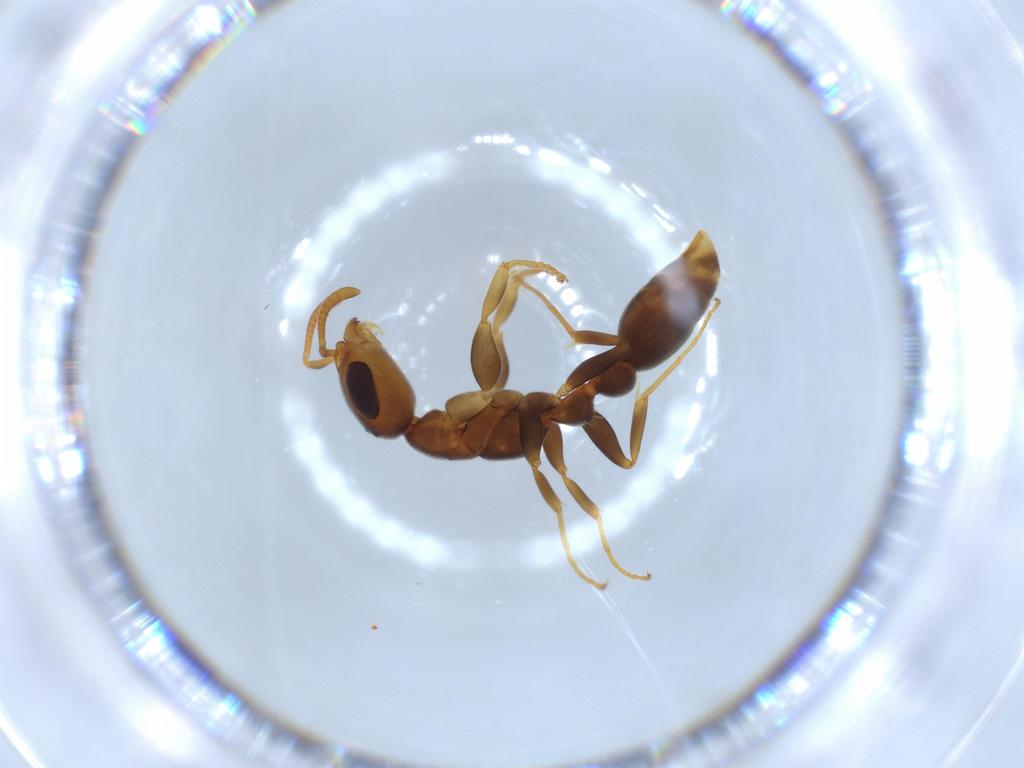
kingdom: Animalia
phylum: Arthropoda
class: Insecta
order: Hymenoptera
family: Formicidae
